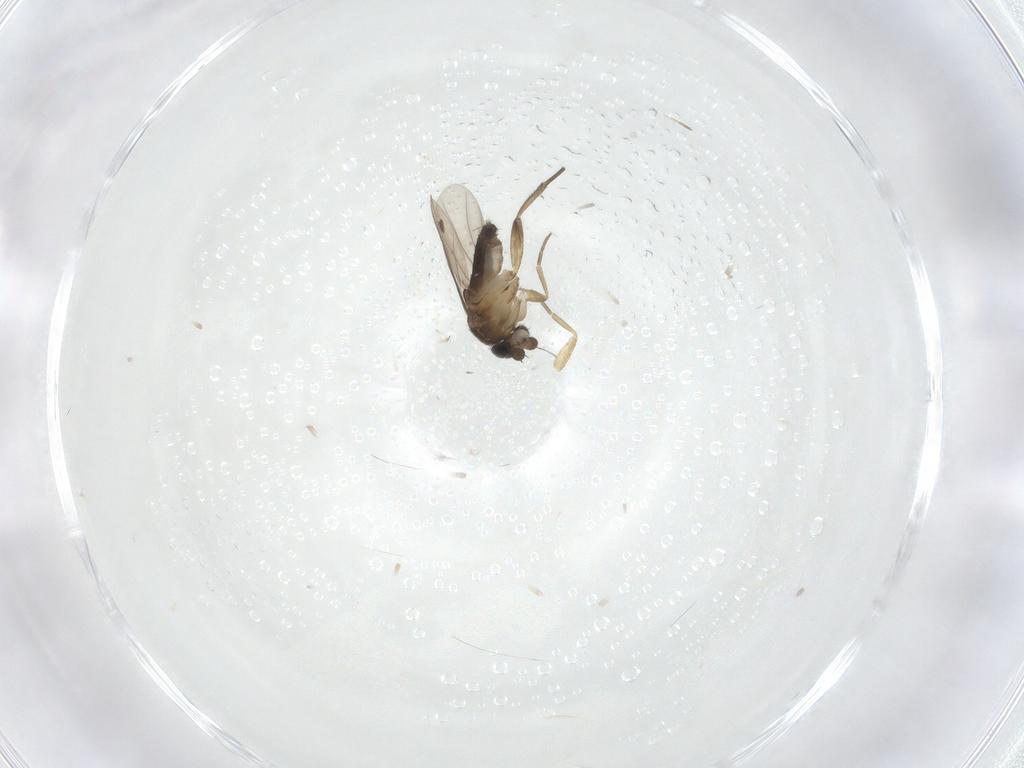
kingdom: Animalia
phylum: Arthropoda
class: Insecta
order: Diptera
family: Phoridae
